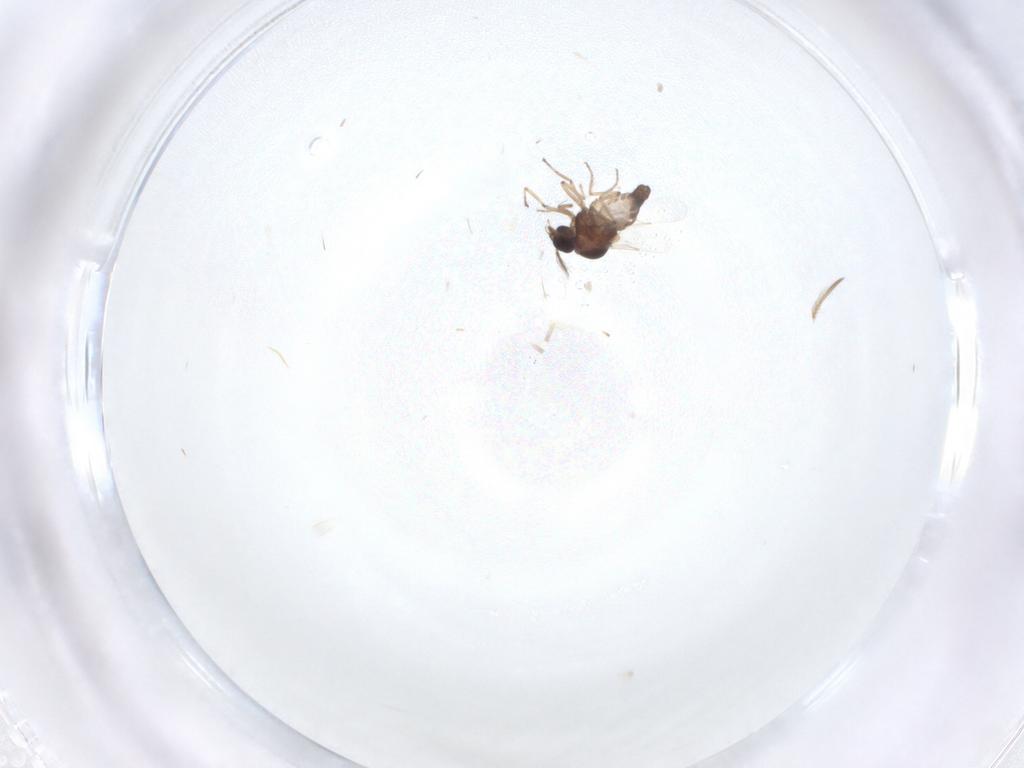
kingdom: Animalia
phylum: Arthropoda
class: Insecta
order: Diptera
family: Ceratopogonidae
